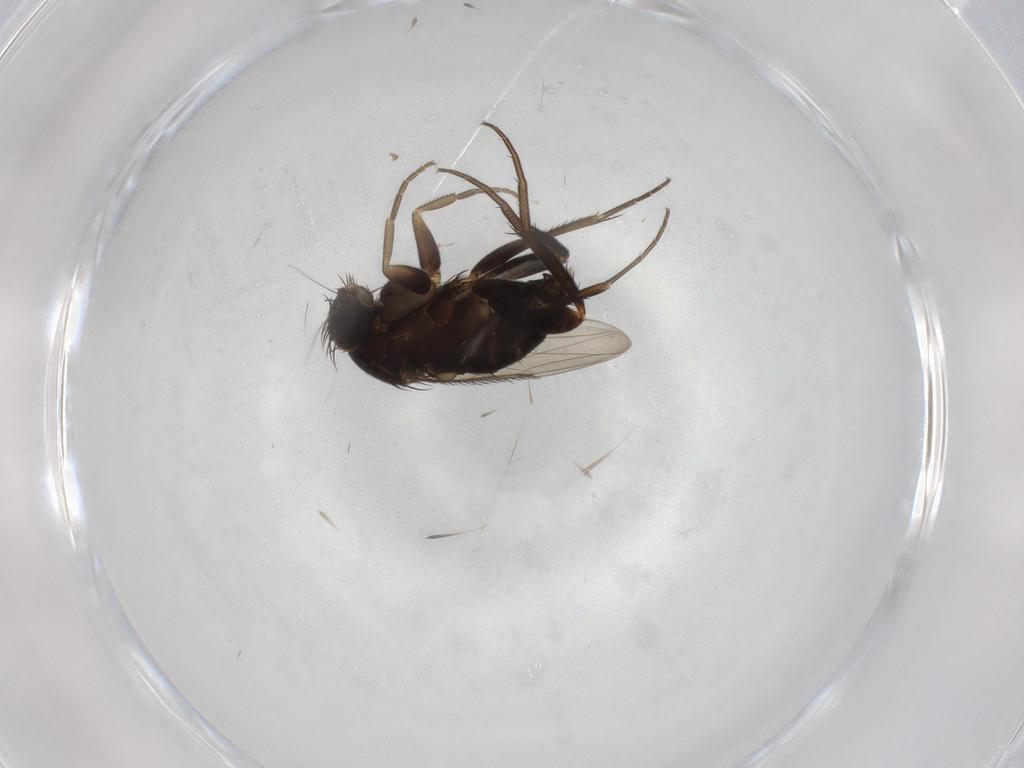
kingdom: Animalia
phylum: Arthropoda
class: Insecta
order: Diptera
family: Phoridae
